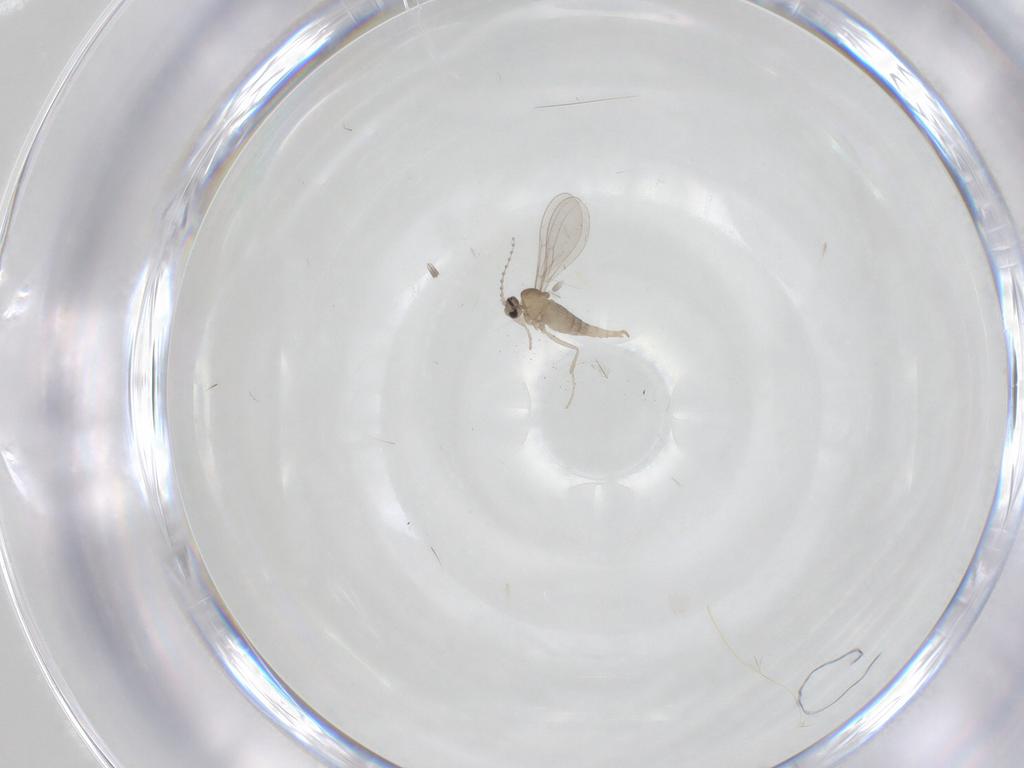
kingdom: Animalia
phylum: Arthropoda
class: Insecta
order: Diptera
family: Cecidomyiidae
